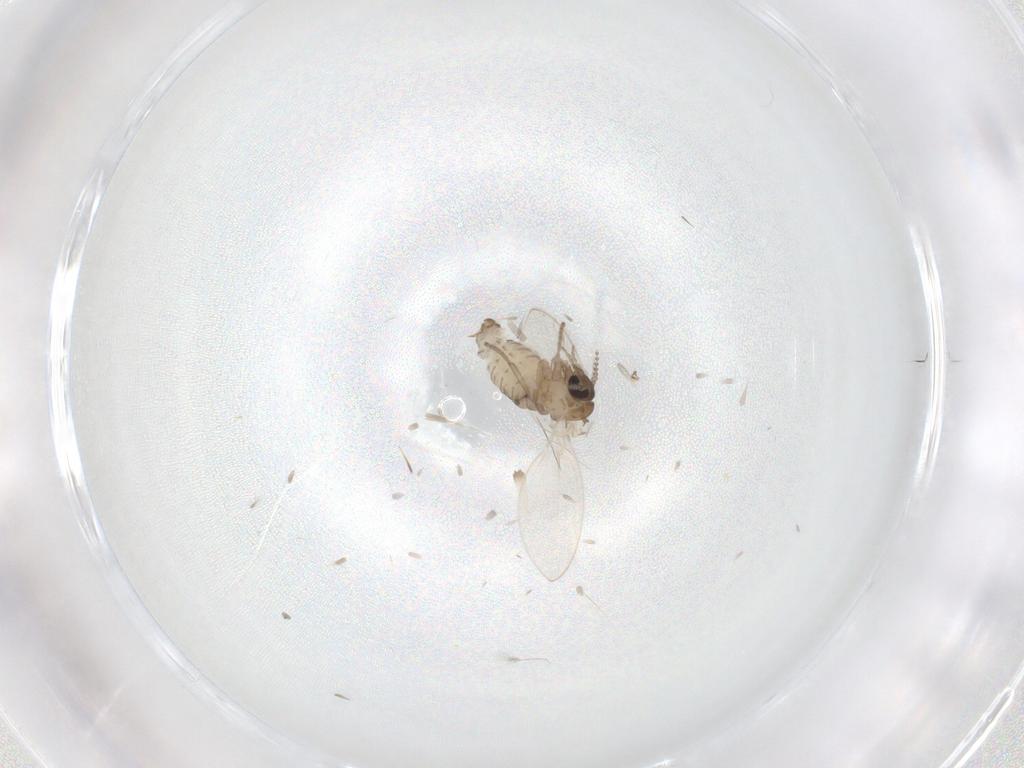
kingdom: Animalia
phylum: Arthropoda
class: Insecta
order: Diptera
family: Psychodidae
